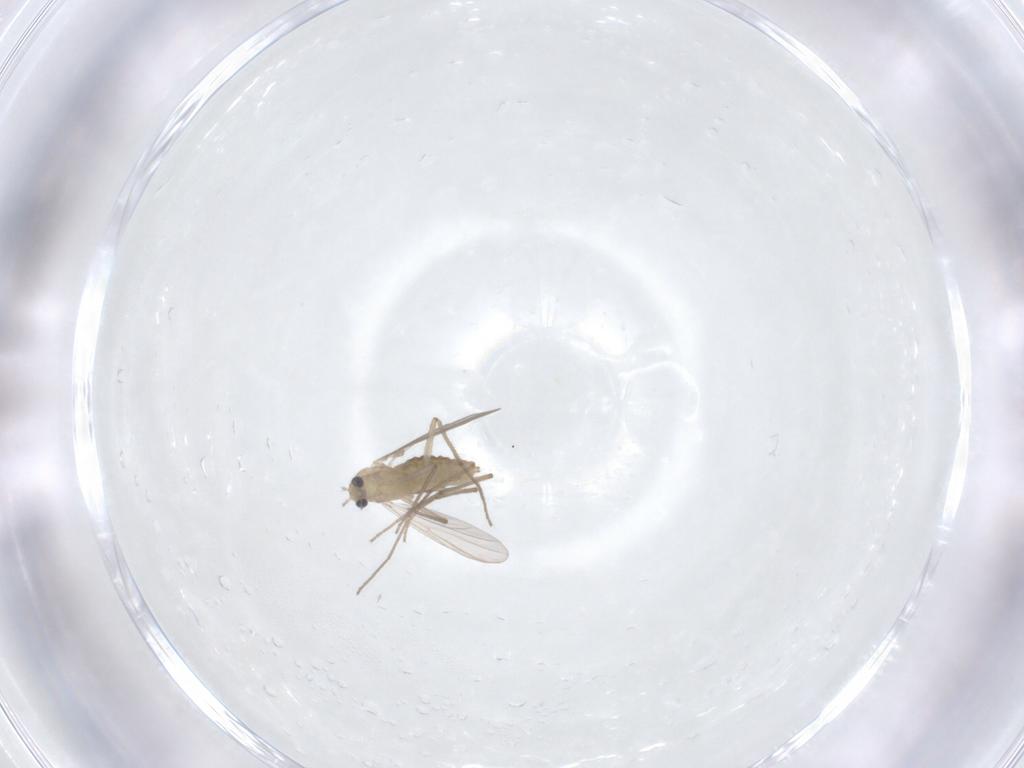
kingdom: Animalia
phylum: Arthropoda
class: Insecta
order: Diptera
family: Chironomidae
